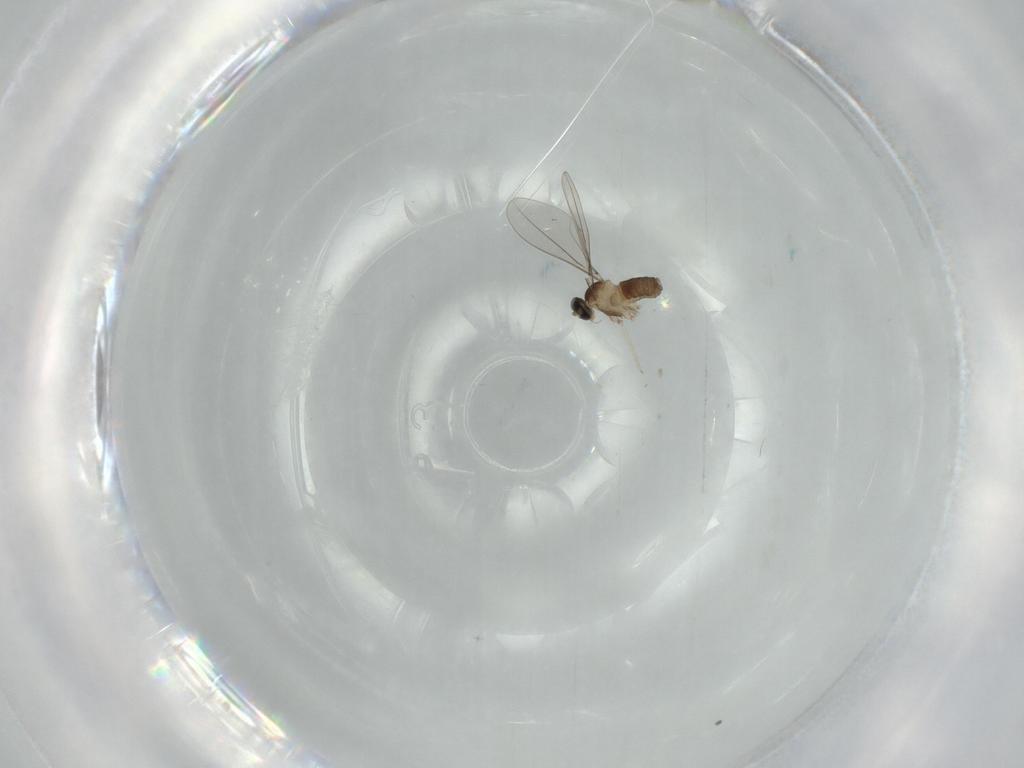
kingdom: Animalia
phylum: Arthropoda
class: Insecta
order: Diptera
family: Cecidomyiidae
